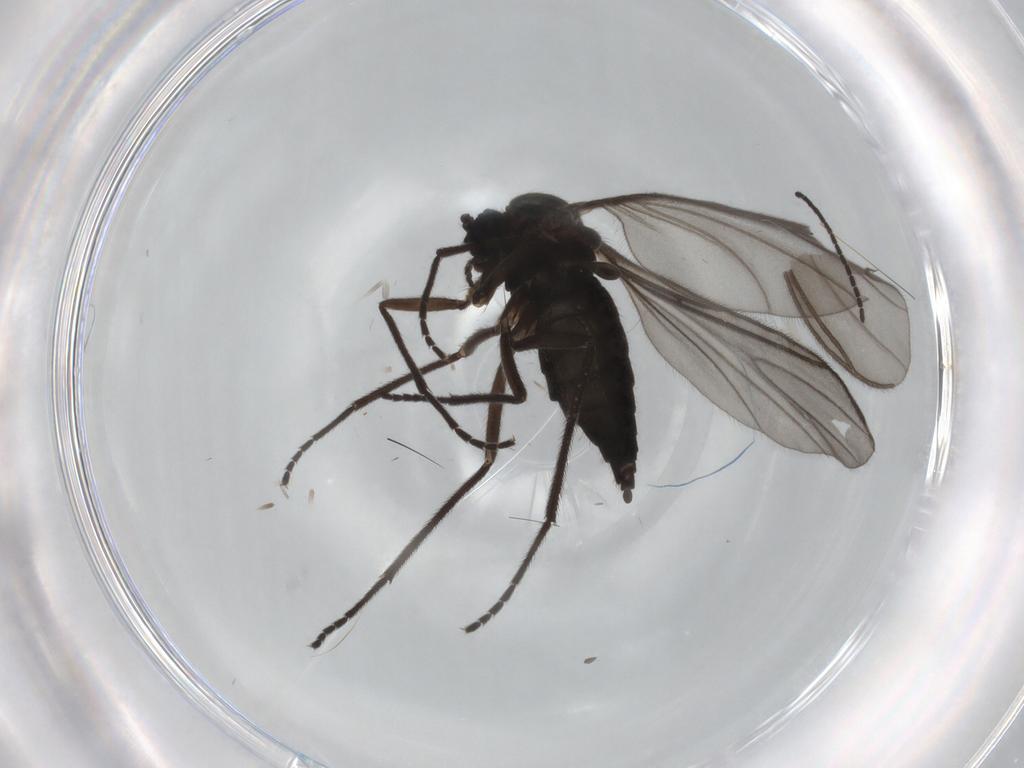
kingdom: Animalia
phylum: Arthropoda
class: Insecta
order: Diptera
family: Sciaridae
